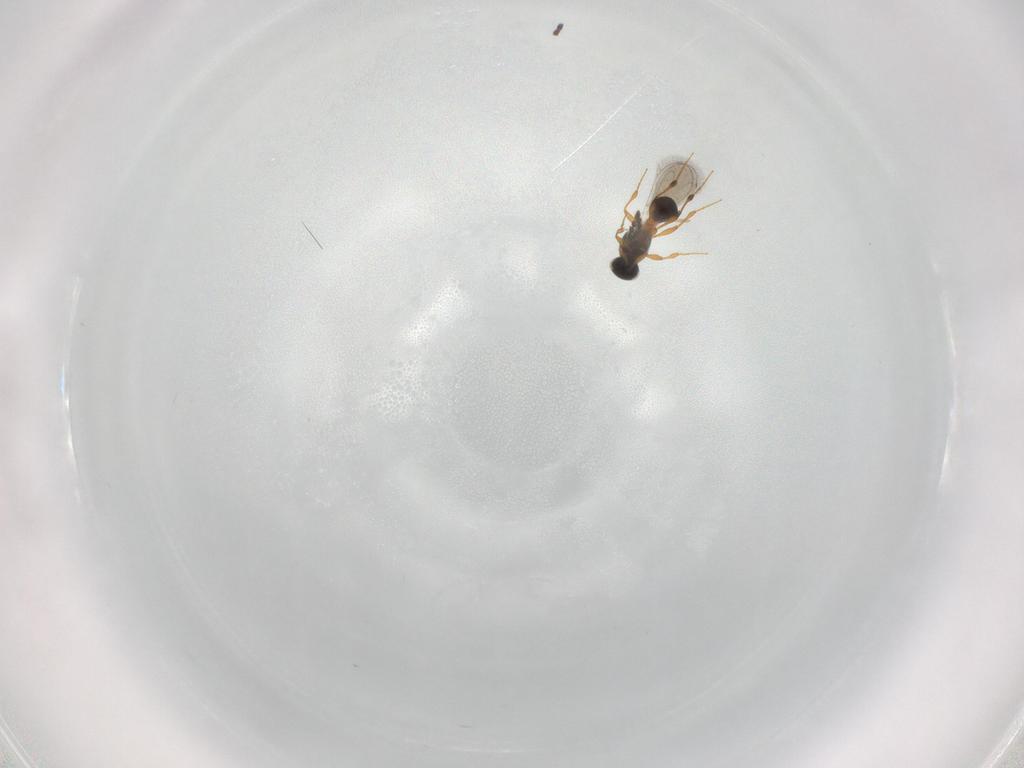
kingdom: Animalia
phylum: Arthropoda
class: Insecta
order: Hymenoptera
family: Platygastridae
